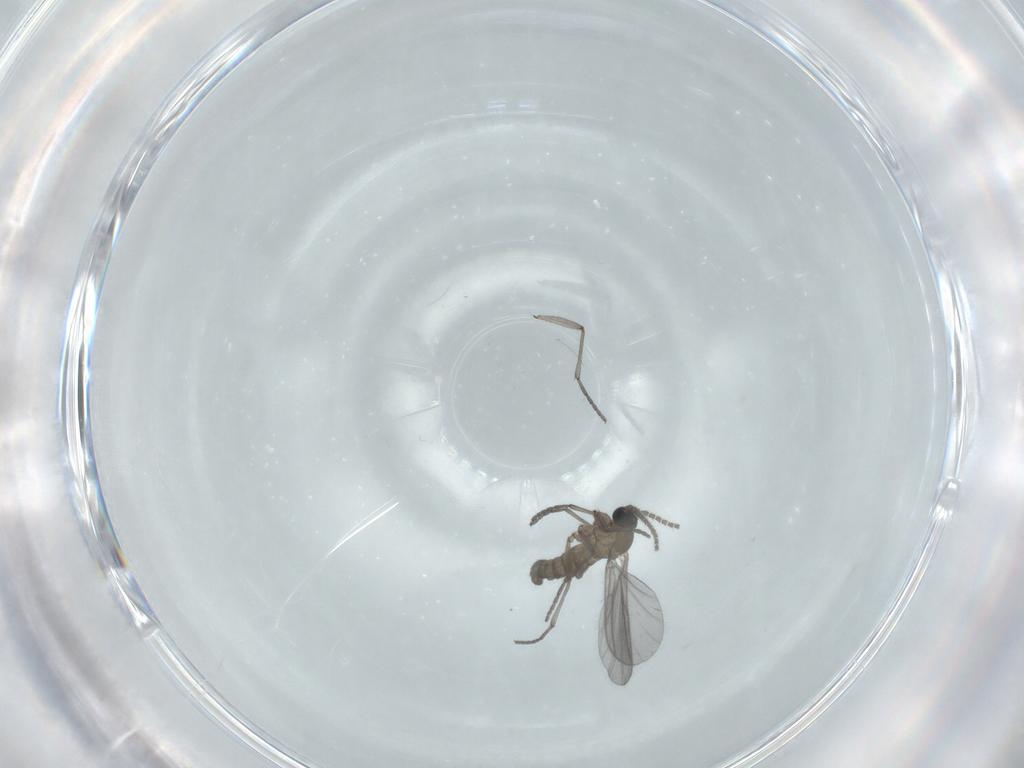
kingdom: Animalia
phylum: Arthropoda
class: Insecta
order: Diptera
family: Sciaridae
